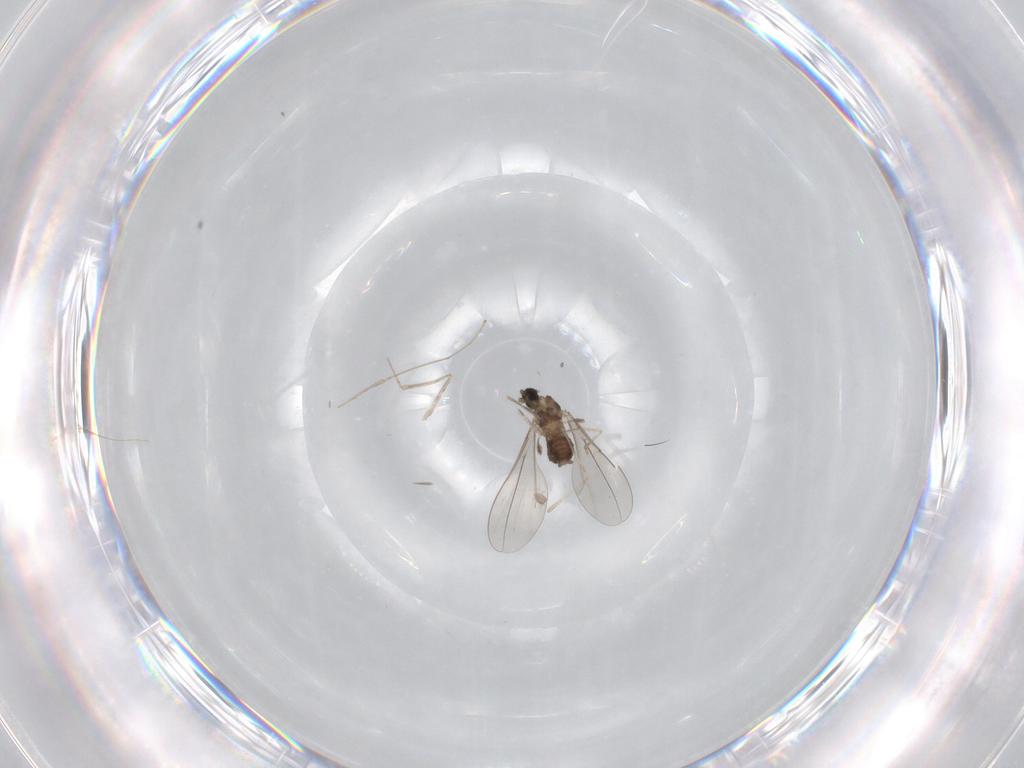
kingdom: Animalia
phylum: Arthropoda
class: Insecta
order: Diptera
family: Cecidomyiidae
